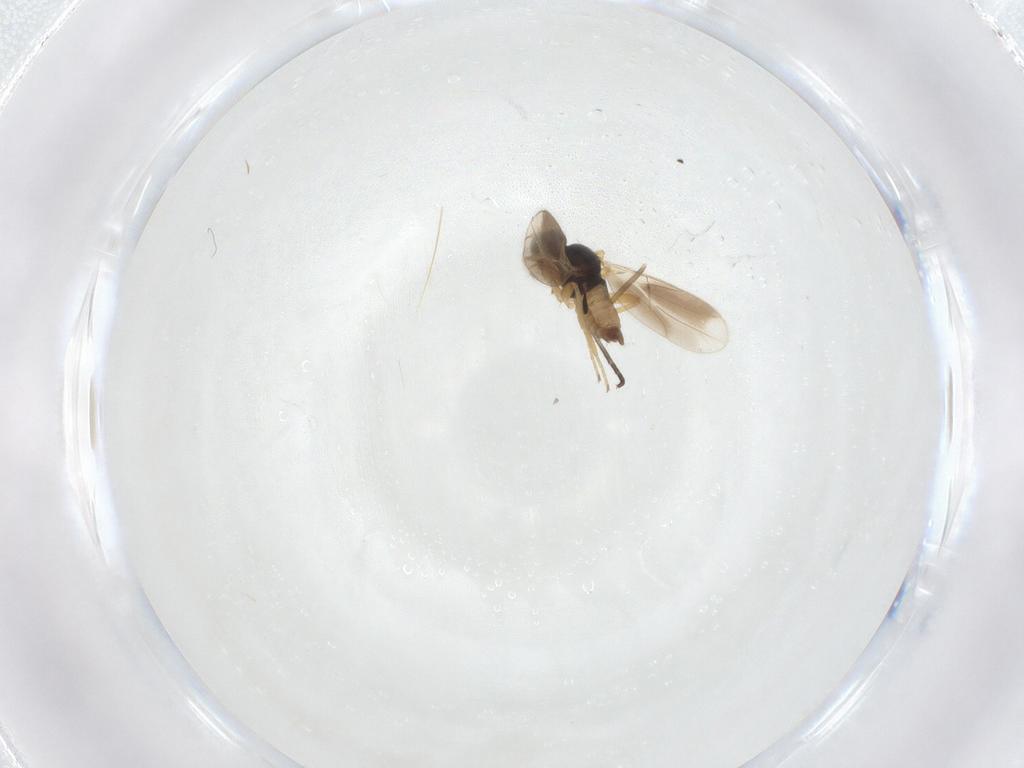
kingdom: Animalia
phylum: Arthropoda
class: Insecta
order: Diptera
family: Hybotidae
